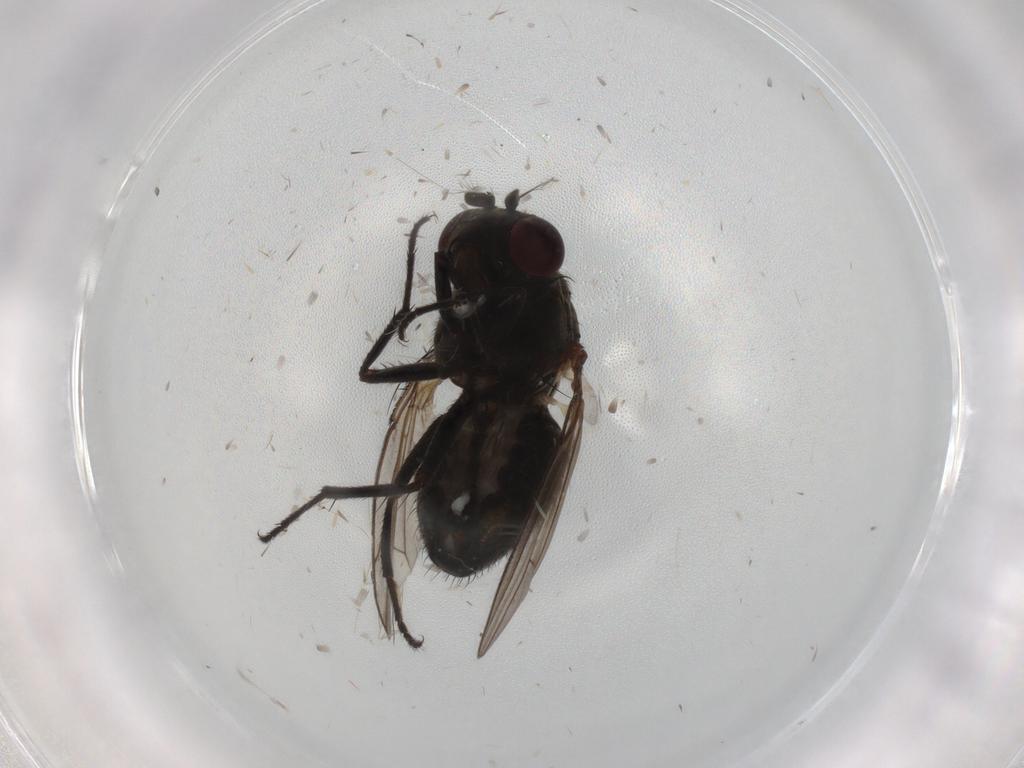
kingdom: Animalia
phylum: Arthropoda
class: Insecta
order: Diptera
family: Ephydridae
